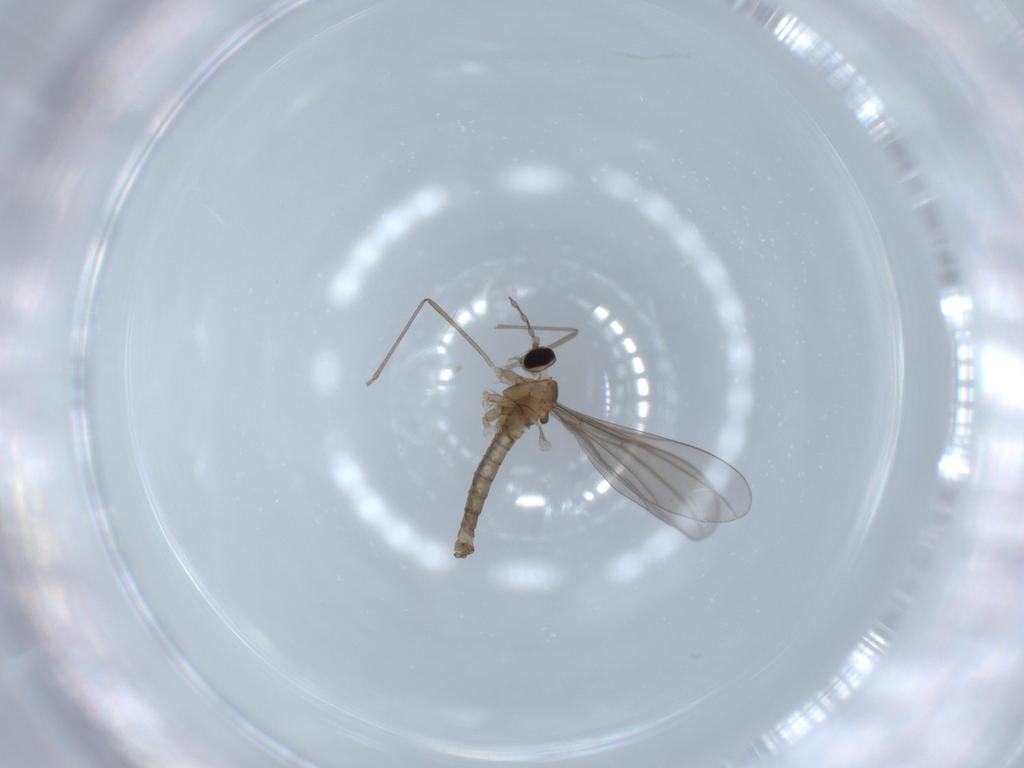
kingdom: Animalia
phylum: Arthropoda
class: Insecta
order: Diptera
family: Cecidomyiidae
